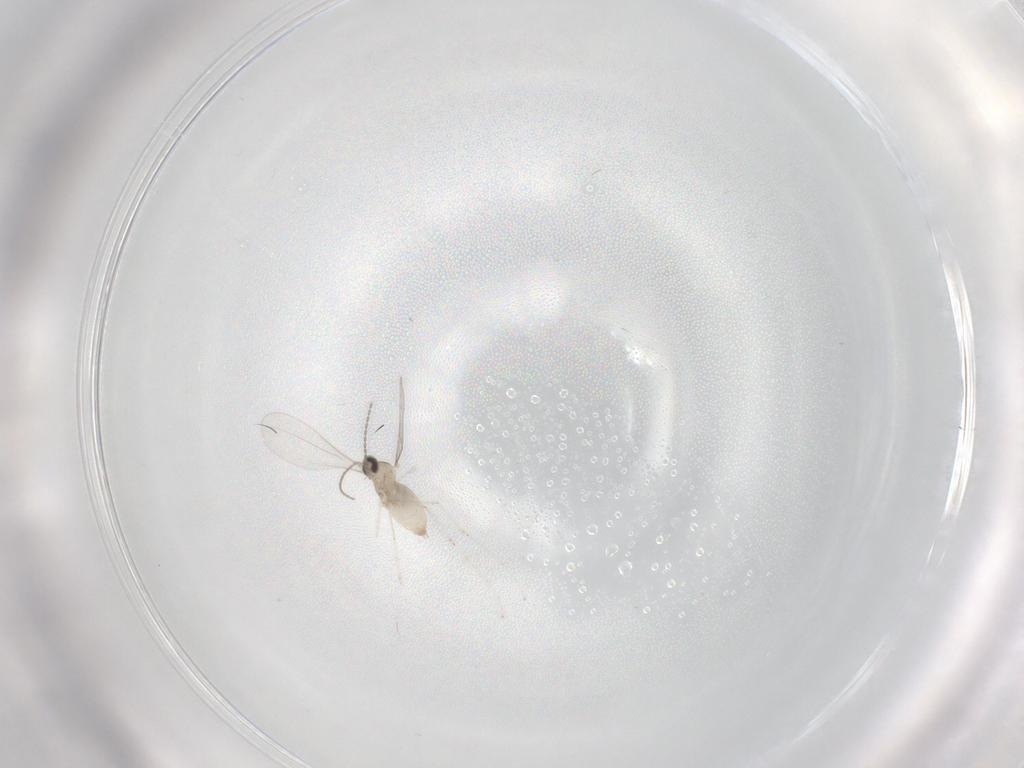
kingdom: Animalia
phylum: Arthropoda
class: Insecta
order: Diptera
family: Cecidomyiidae
